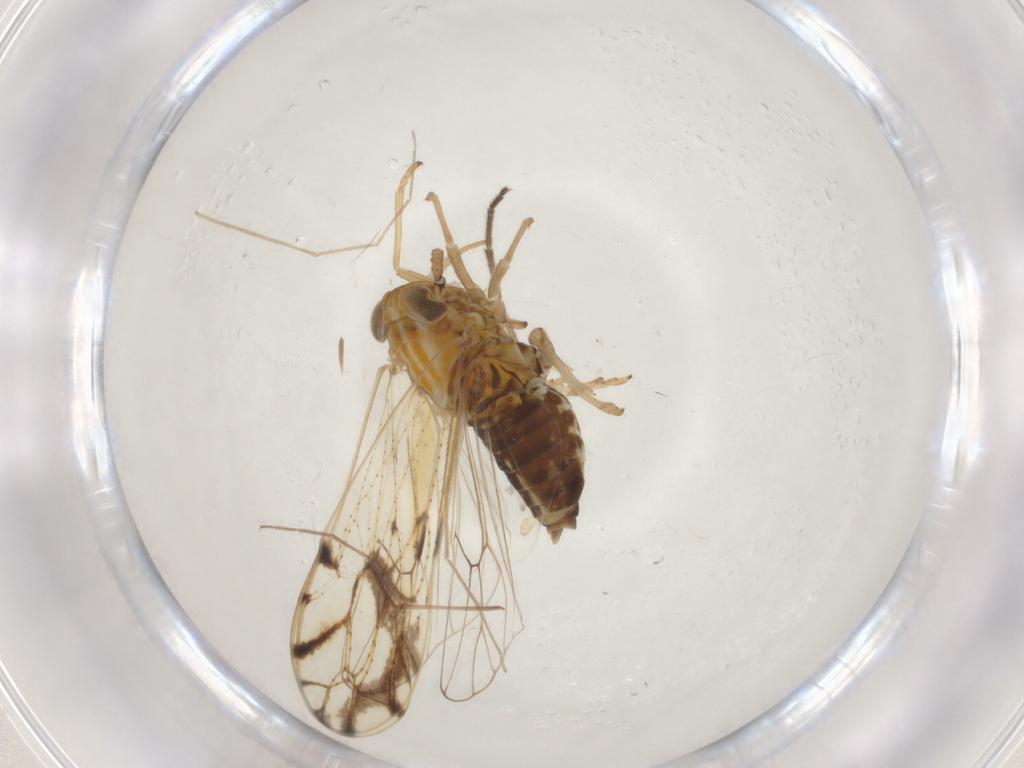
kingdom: Animalia
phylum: Arthropoda
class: Insecta
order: Hemiptera
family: Delphacidae
